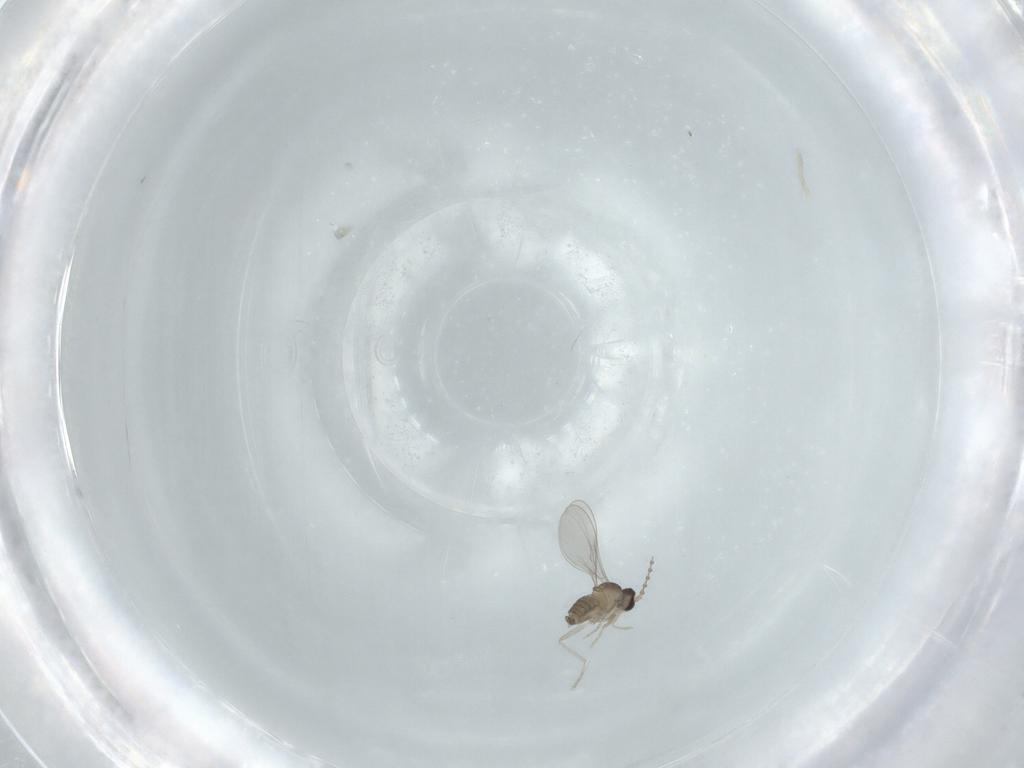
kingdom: Animalia
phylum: Arthropoda
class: Insecta
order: Diptera
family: Cecidomyiidae
